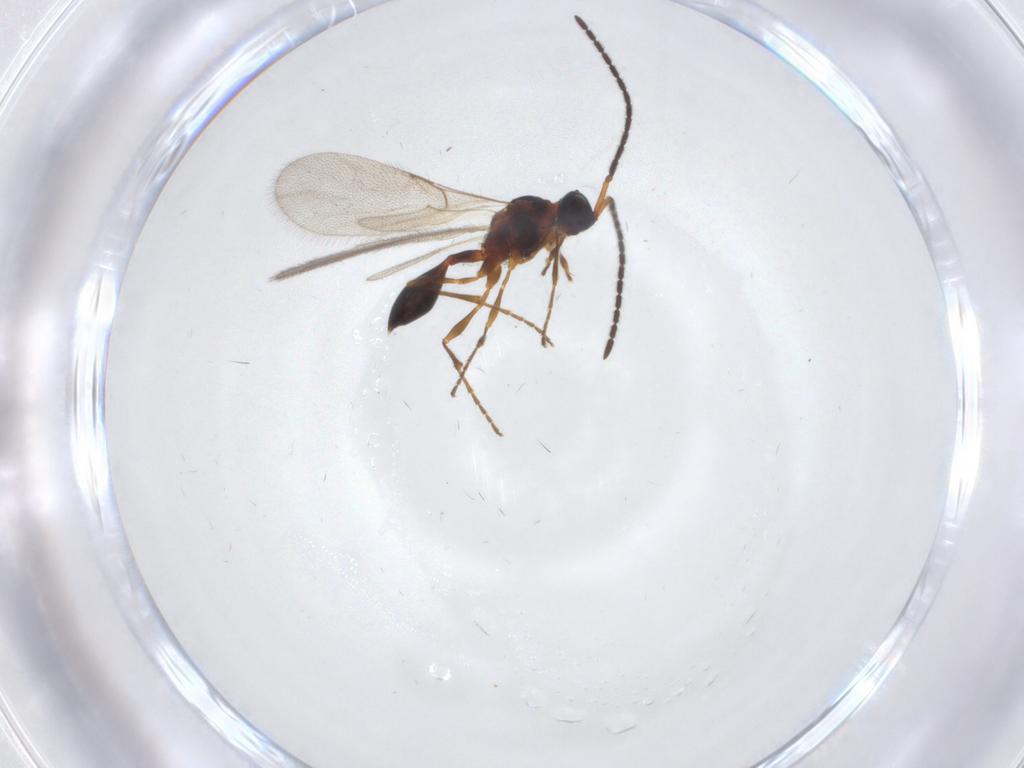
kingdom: Animalia
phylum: Arthropoda
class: Insecta
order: Hymenoptera
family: Diapriidae
